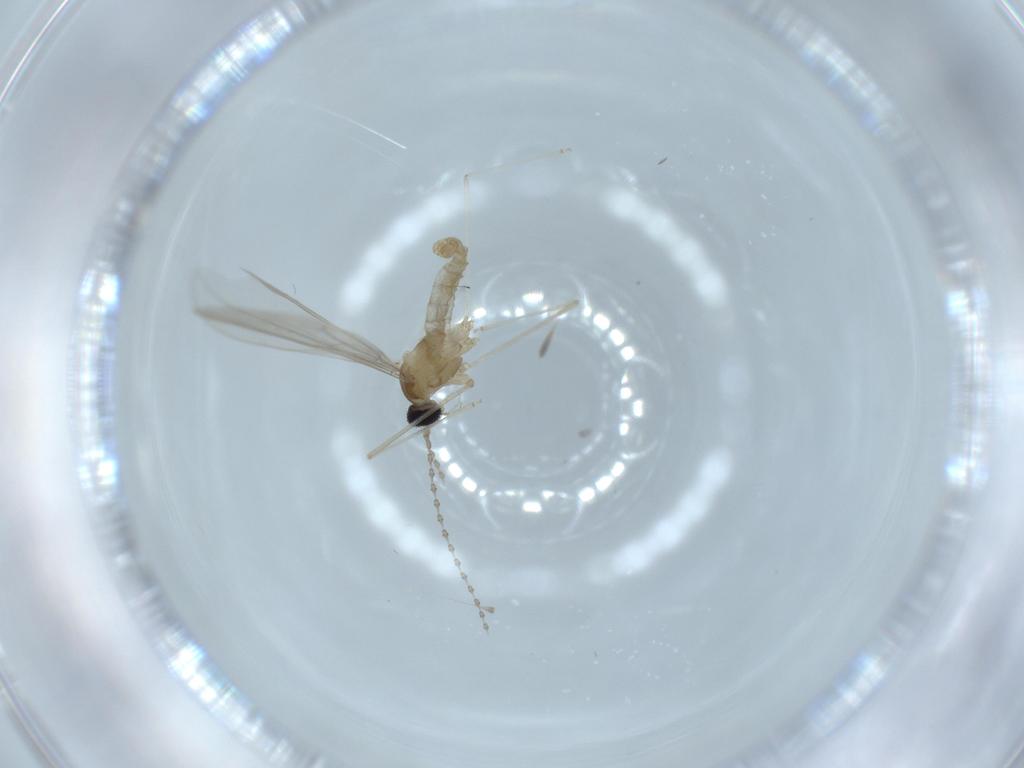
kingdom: Animalia
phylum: Arthropoda
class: Insecta
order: Diptera
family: Cecidomyiidae
